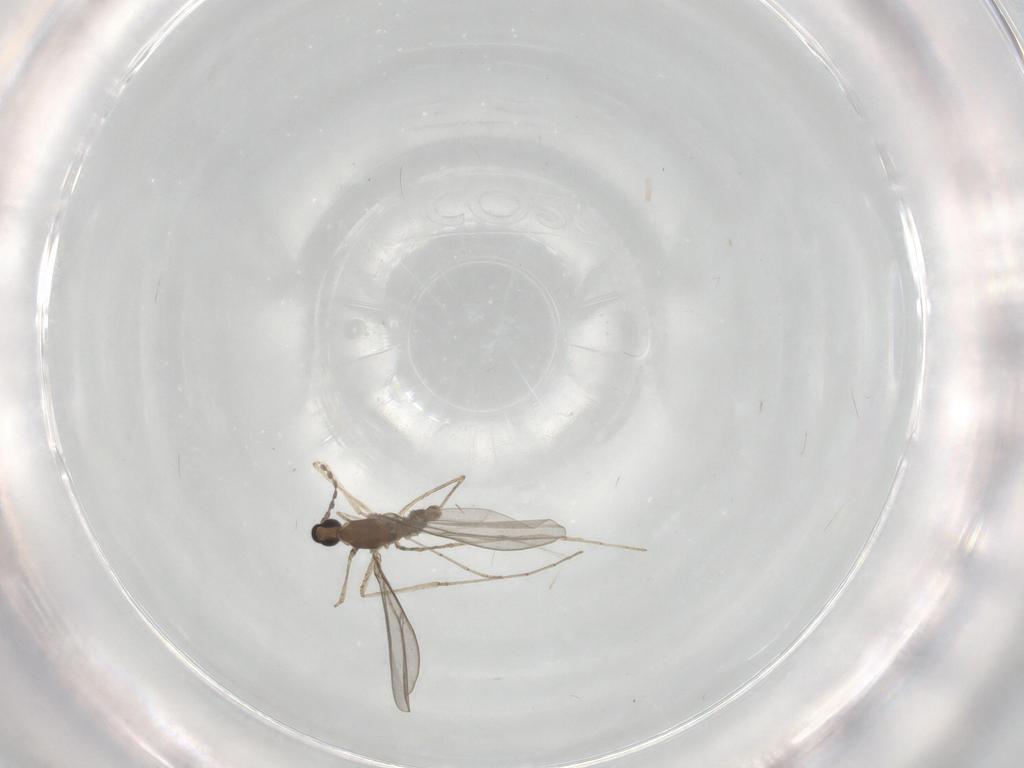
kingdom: Animalia
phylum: Arthropoda
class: Insecta
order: Diptera
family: Cecidomyiidae
